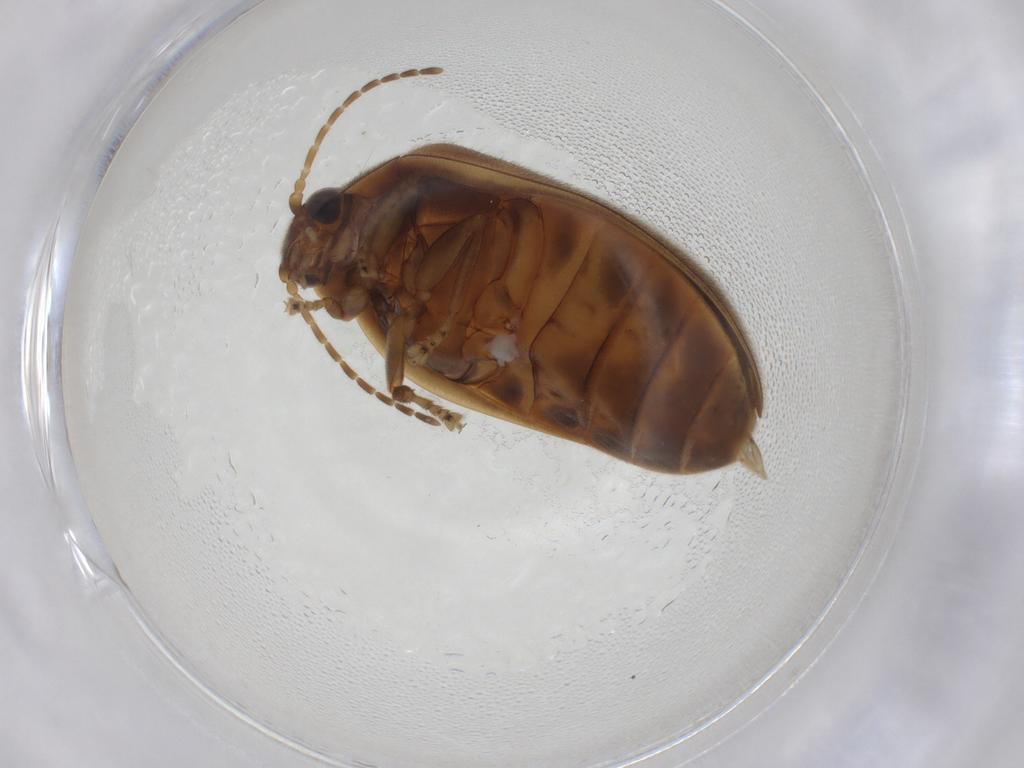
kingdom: Animalia
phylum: Arthropoda
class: Insecta
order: Coleoptera
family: Scirtidae
